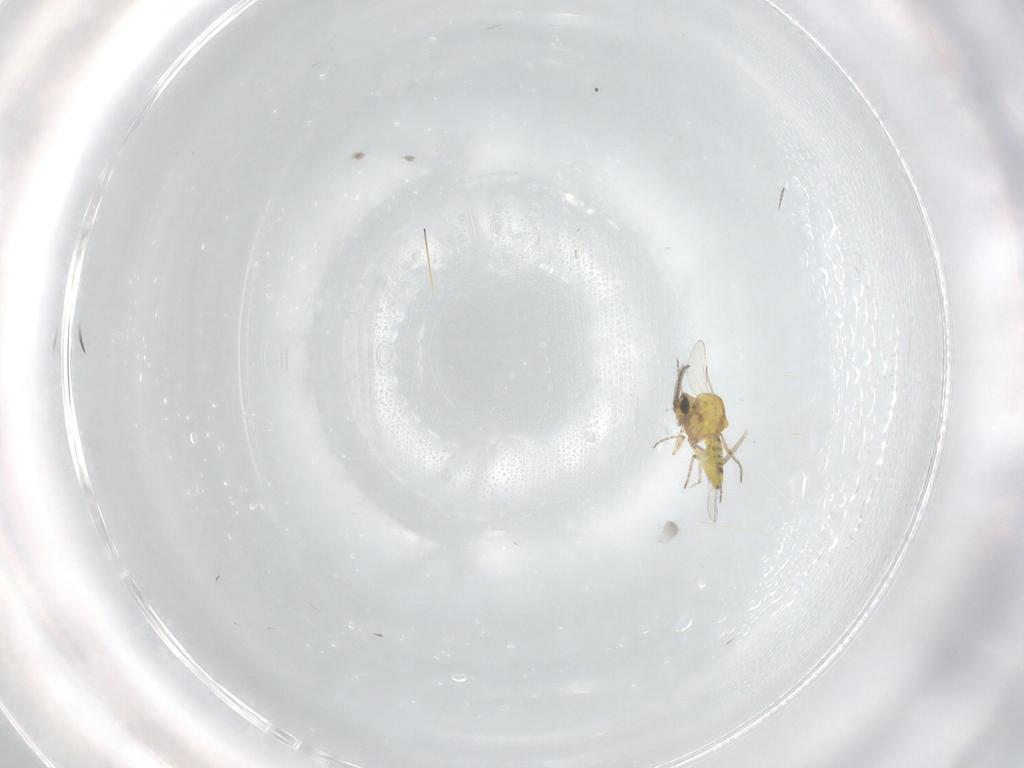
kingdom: Animalia
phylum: Arthropoda
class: Insecta
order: Diptera
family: Ceratopogonidae
